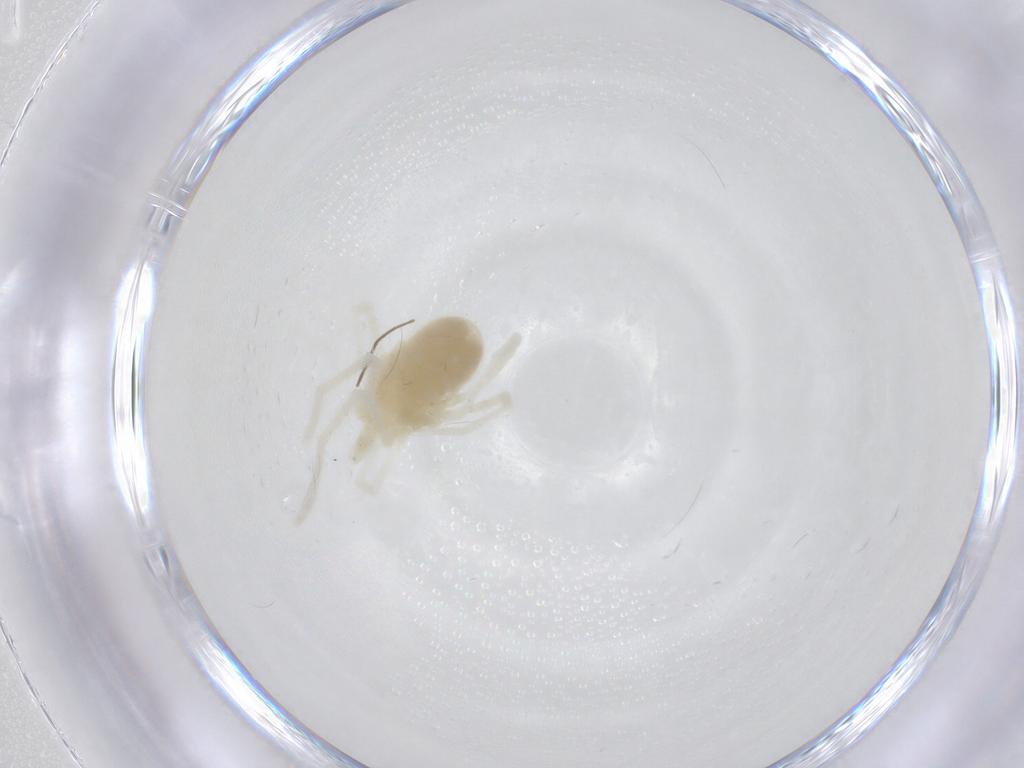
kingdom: Animalia
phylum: Arthropoda
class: Arachnida
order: Trombidiformes
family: Teneriffiidae
